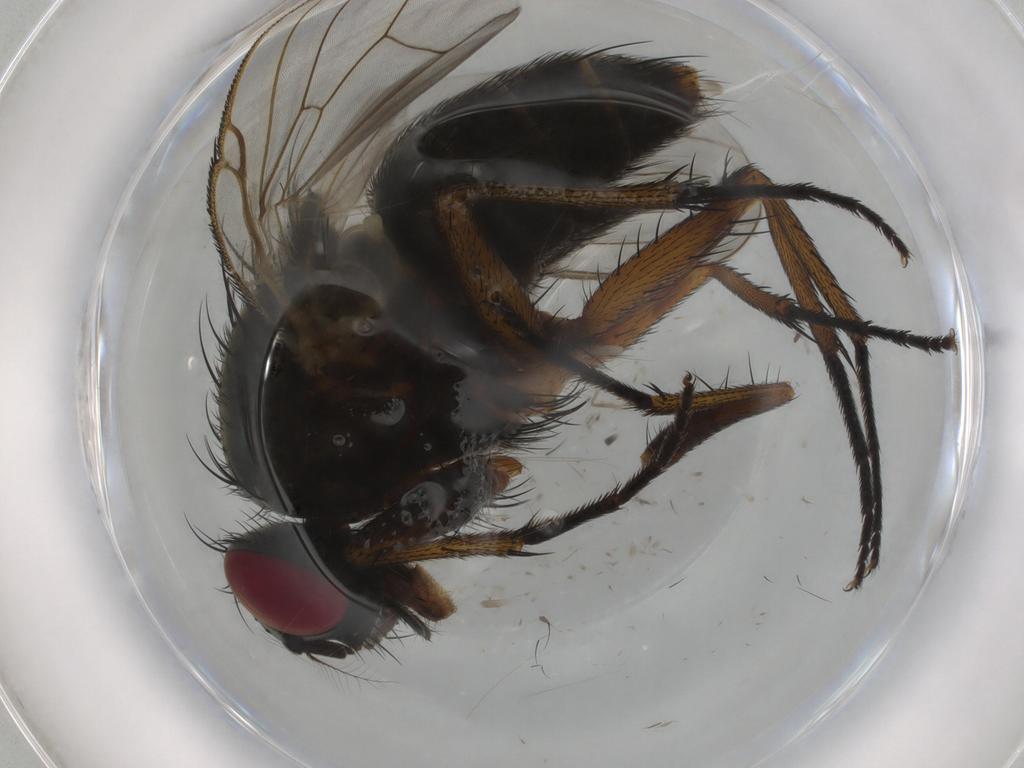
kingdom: Animalia
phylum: Arthropoda
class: Insecta
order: Diptera
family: Cecidomyiidae
